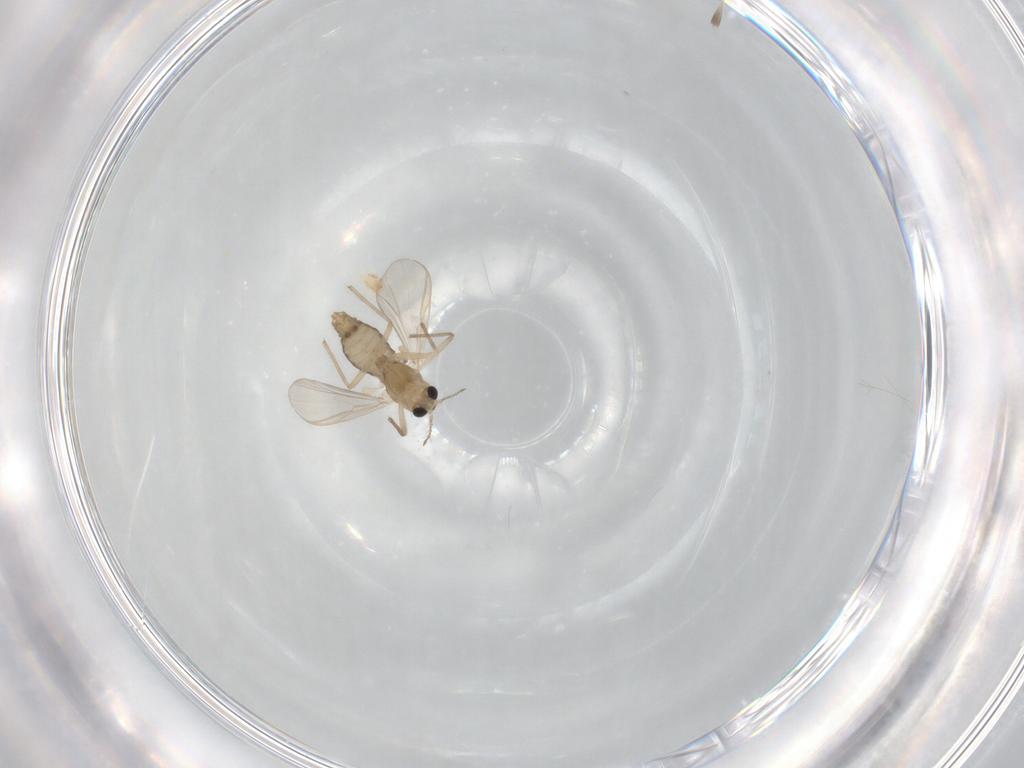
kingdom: Animalia
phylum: Arthropoda
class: Insecta
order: Diptera
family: Chironomidae
